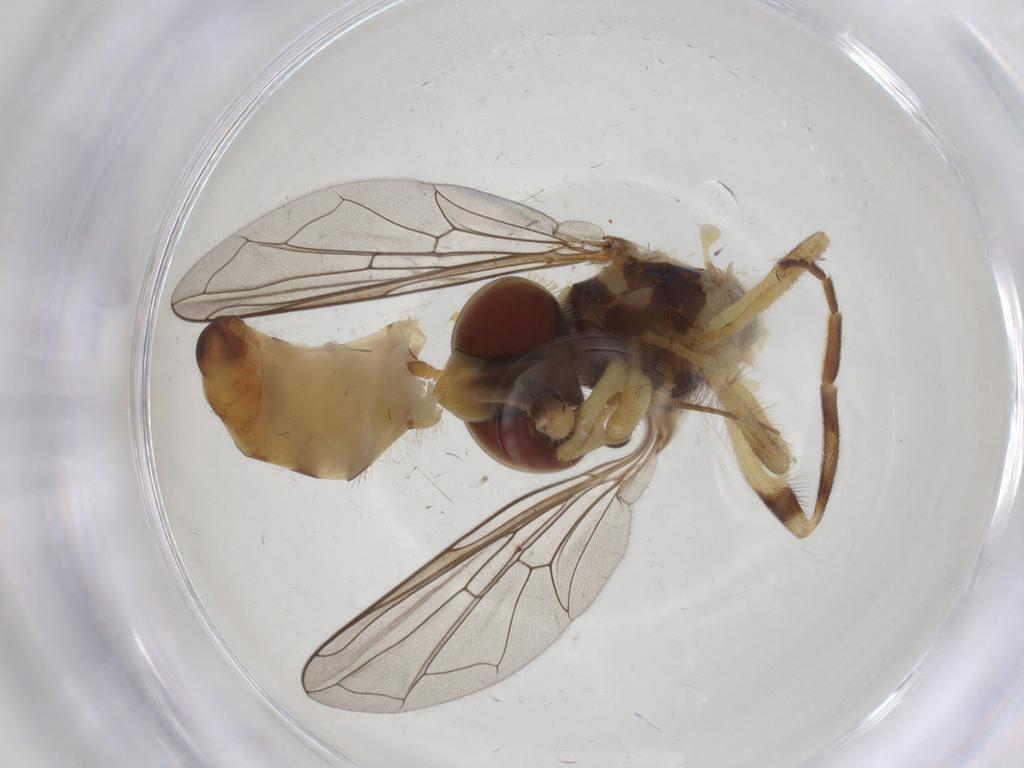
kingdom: Animalia
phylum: Arthropoda
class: Insecta
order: Diptera
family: Syrphidae
